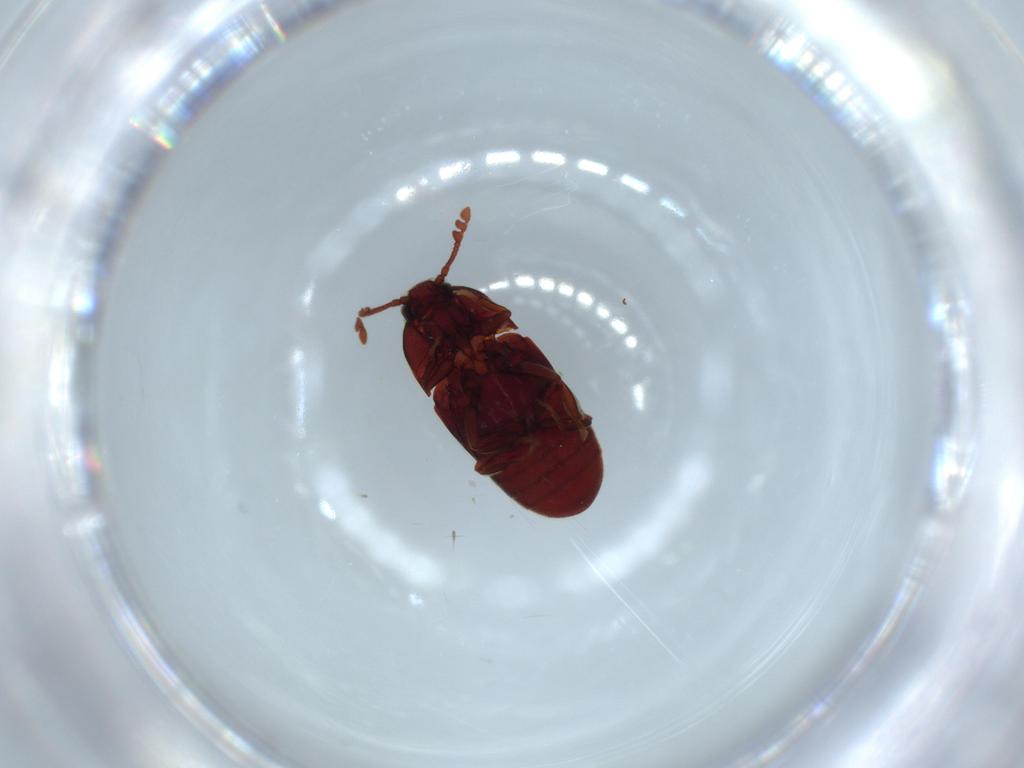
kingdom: Animalia
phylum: Arthropoda
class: Insecta
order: Coleoptera
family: Throscidae
